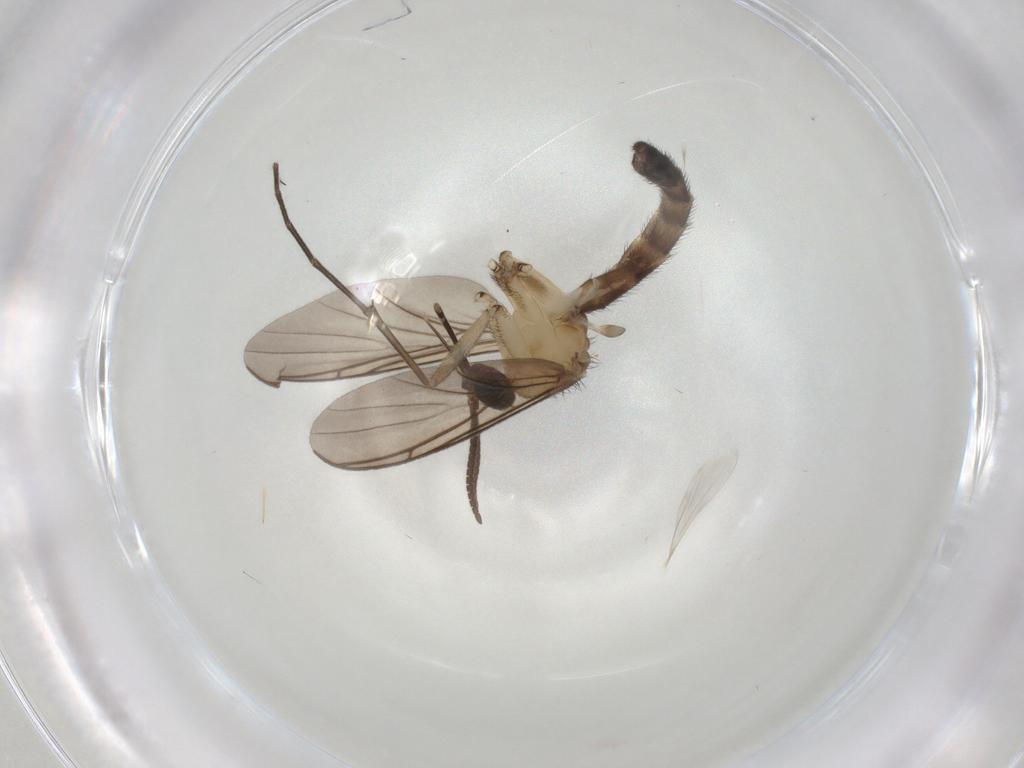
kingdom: Animalia
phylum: Arthropoda
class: Insecta
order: Diptera
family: Keroplatidae
